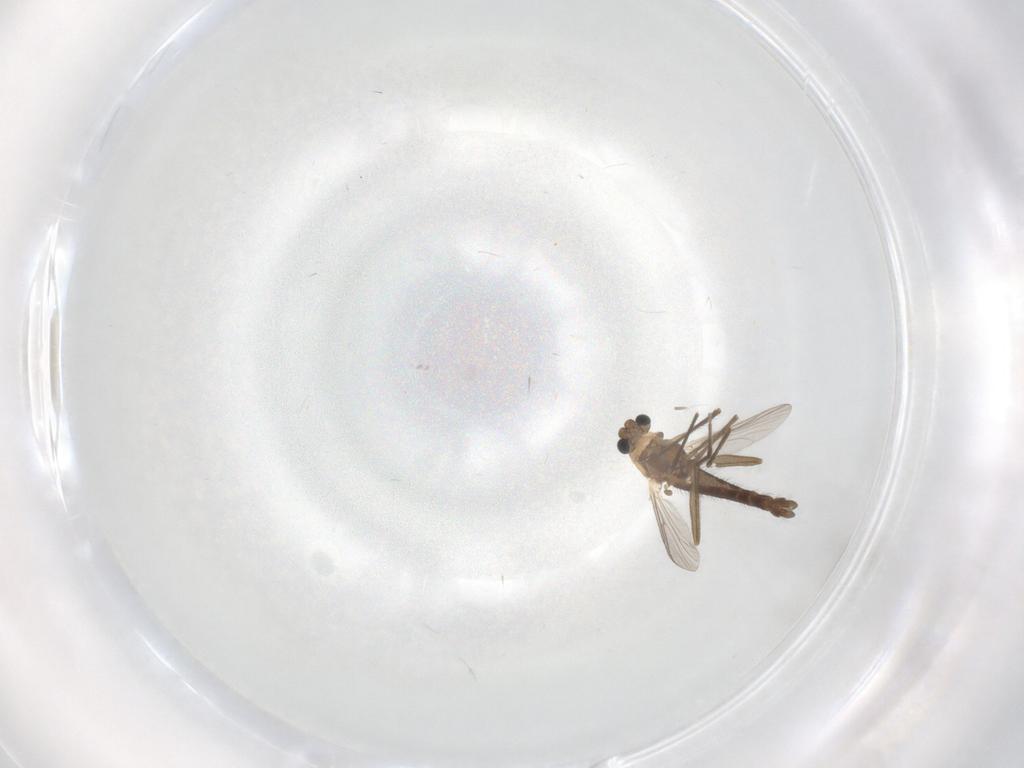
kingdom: Animalia
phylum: Arthropoda
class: Insecta
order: Diptera
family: Chironomidae
